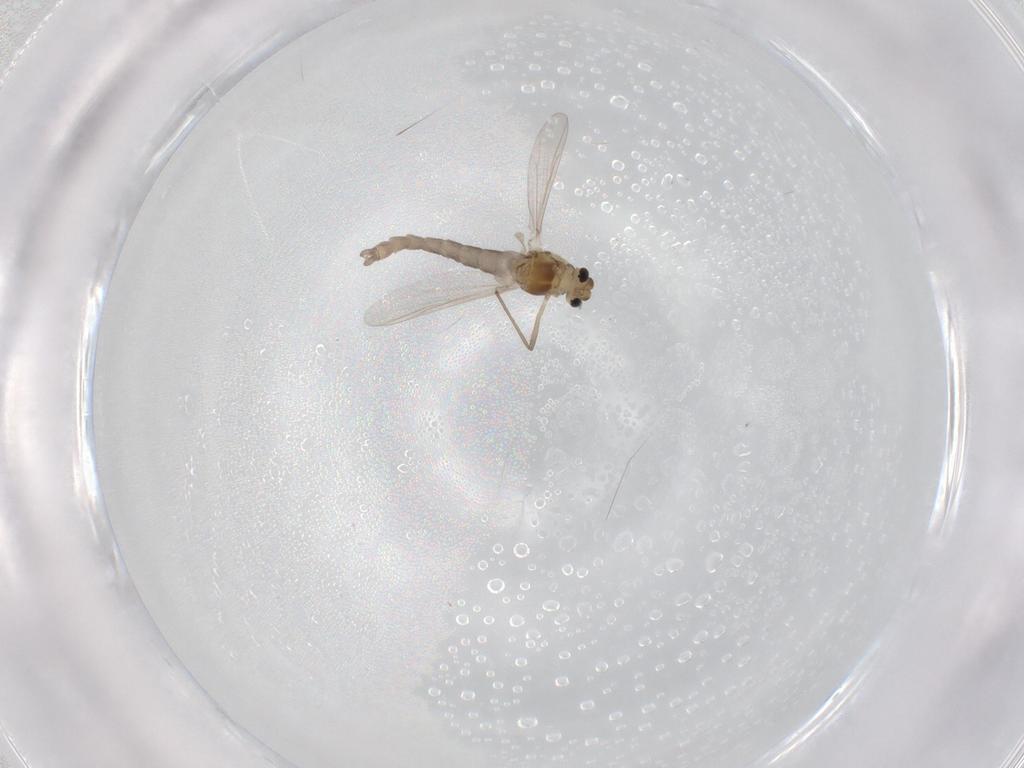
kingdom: Animalia
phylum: Arthropoda
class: Insecta
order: Diptera
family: Chironomidae
